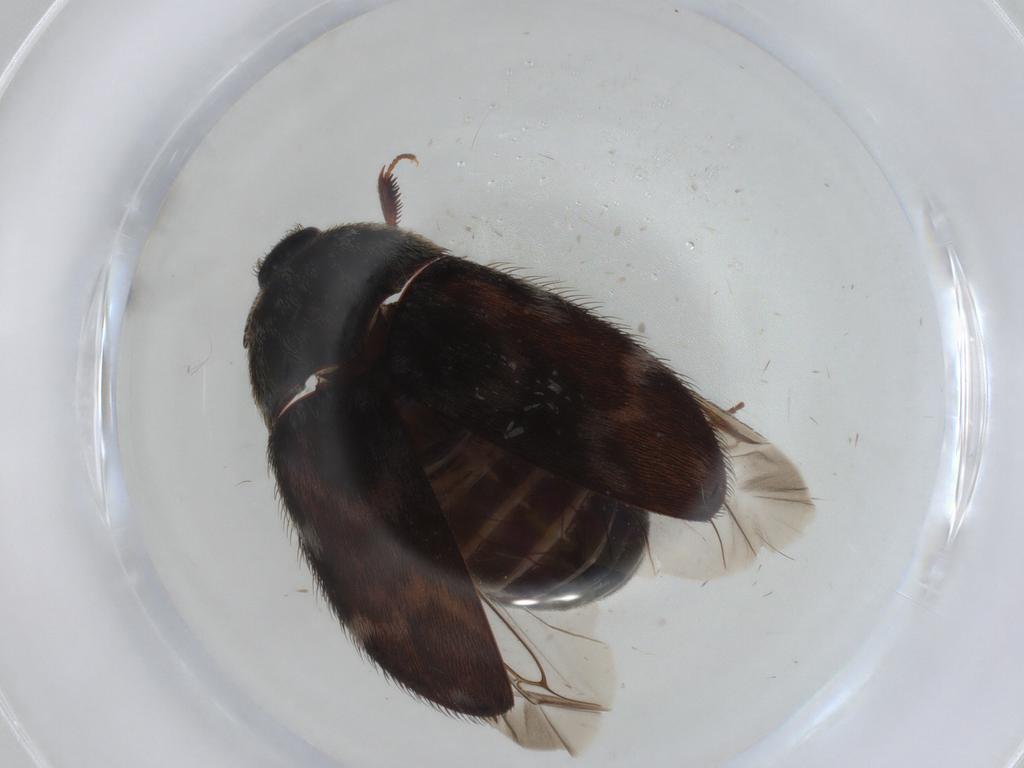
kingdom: Animalia
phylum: Arthropoda
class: Insecta
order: Coleoptera
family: Dermestidae
